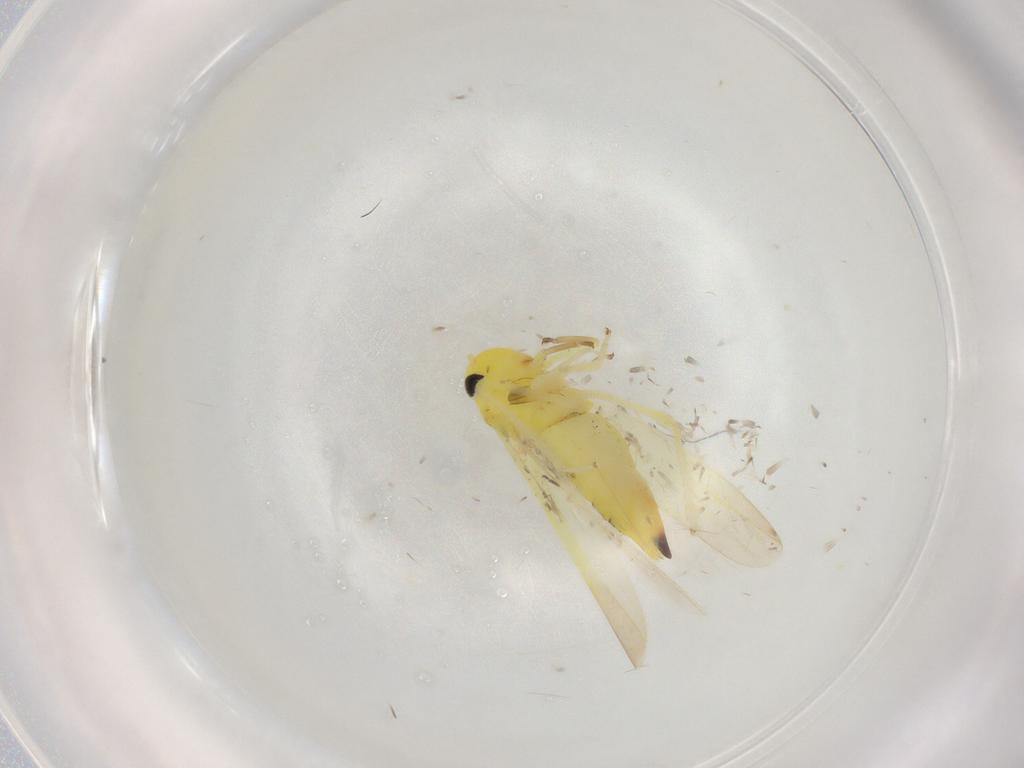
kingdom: Animalia
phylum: Arthropoda
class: Insecta
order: Hemiptera
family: Cicadellidae
